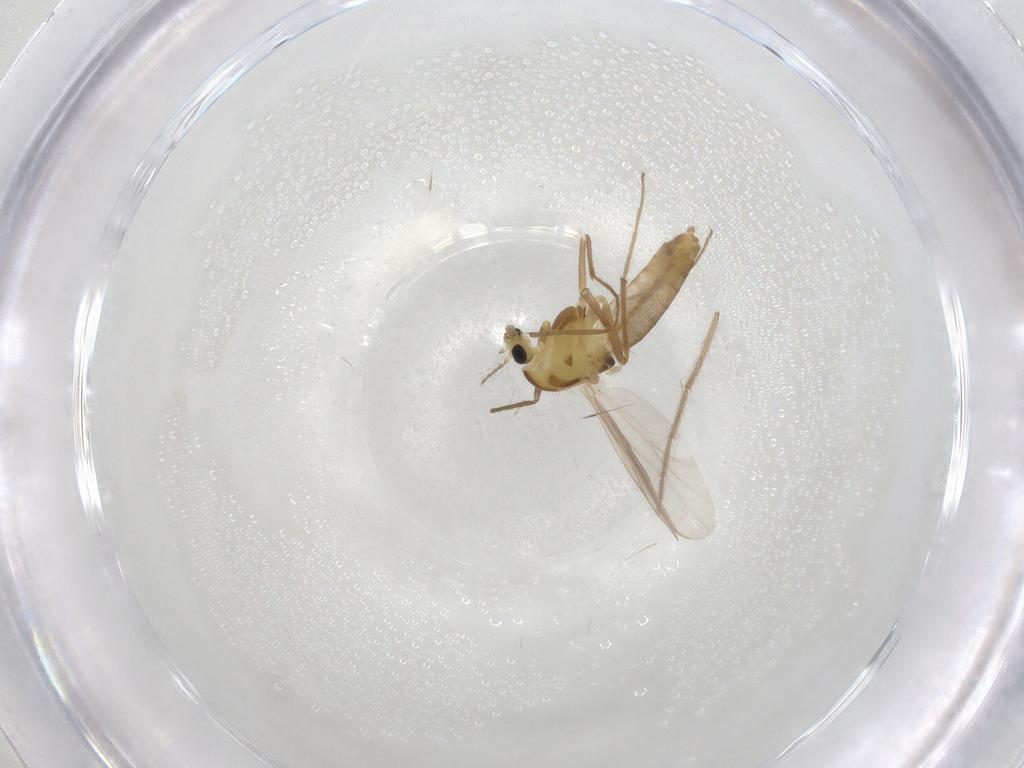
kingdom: Animalia
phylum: Arthropoda
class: Insecta
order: Diptera
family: Chironomidae
